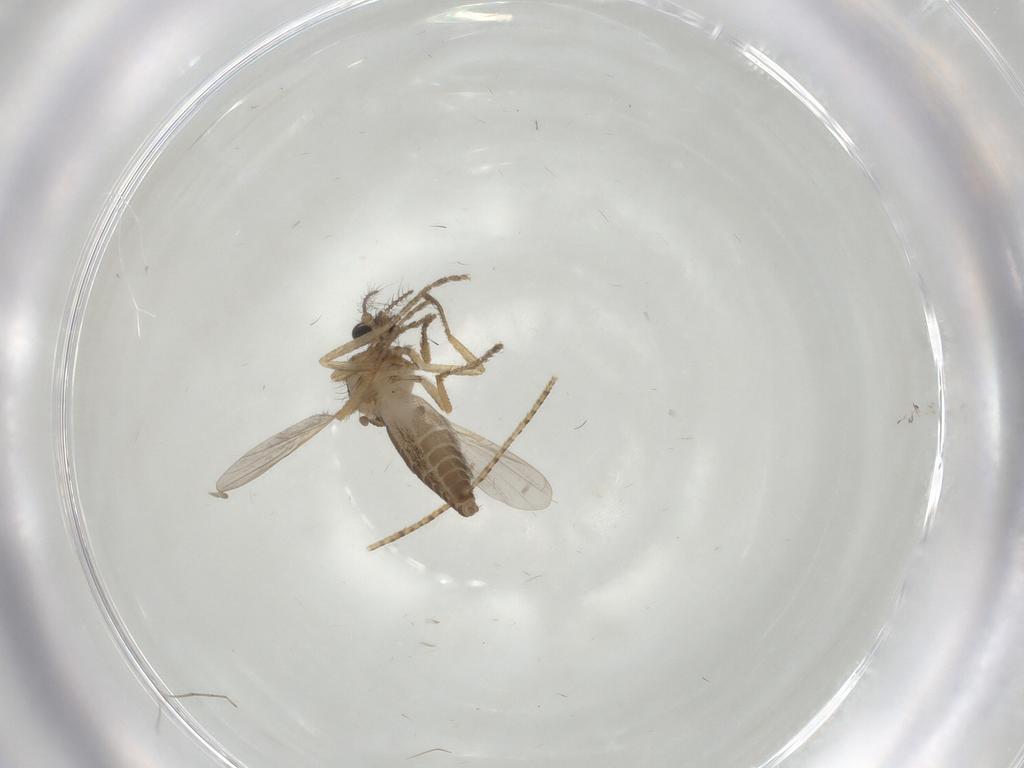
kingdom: Animalia
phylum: Arthropoda
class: Insecta
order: Diptera
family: Ceratopogonidae
